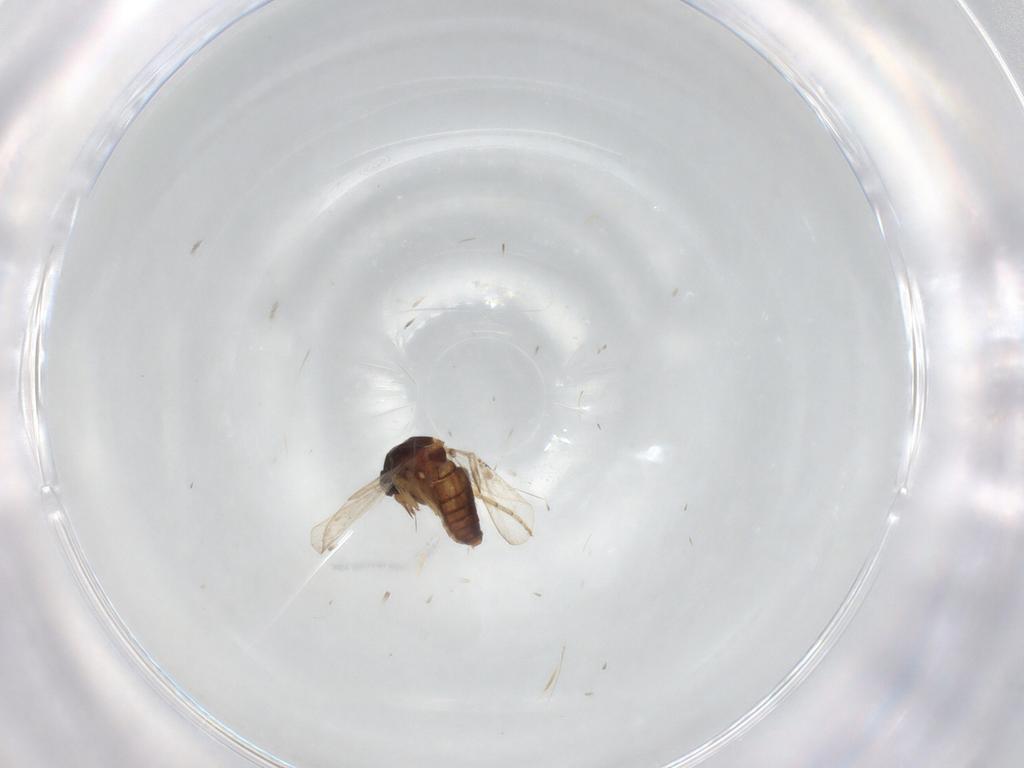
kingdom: Animalia
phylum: Arthropoda
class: Insecta
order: Diptera
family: Ceratopogonidae
